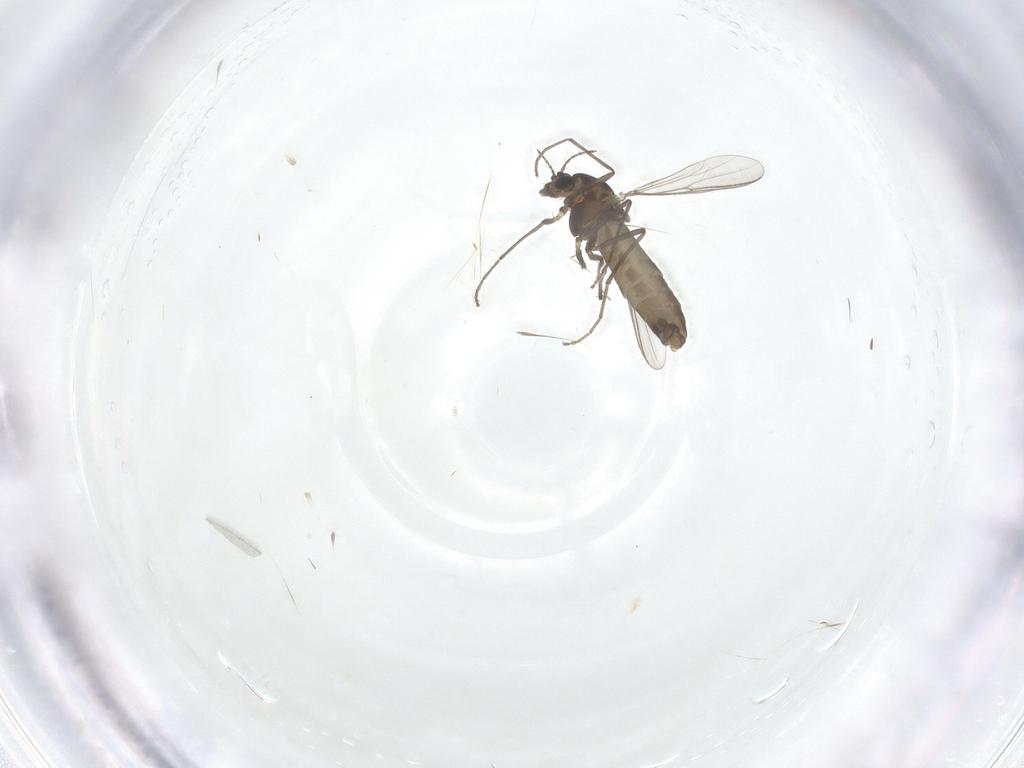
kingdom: Animalia
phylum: Arthropoda
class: Insecta
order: Diptera
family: Chironomidae
